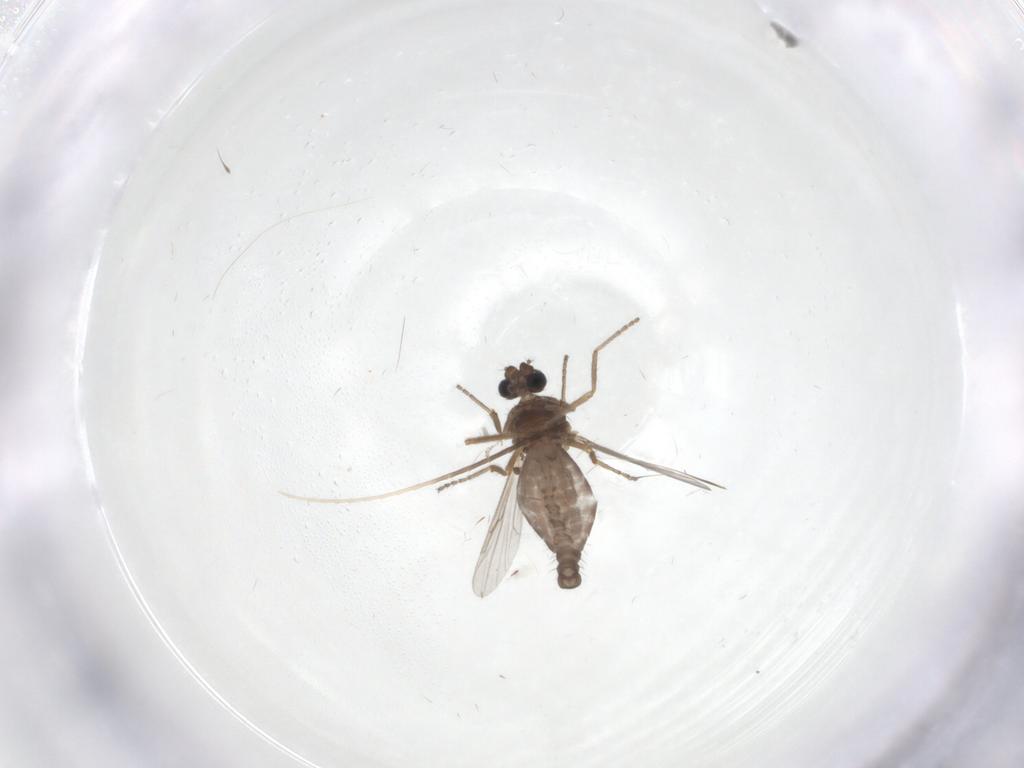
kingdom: Animalia
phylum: Arthropoda
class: Insecta
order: Diptera
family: Ceratopogonidae
